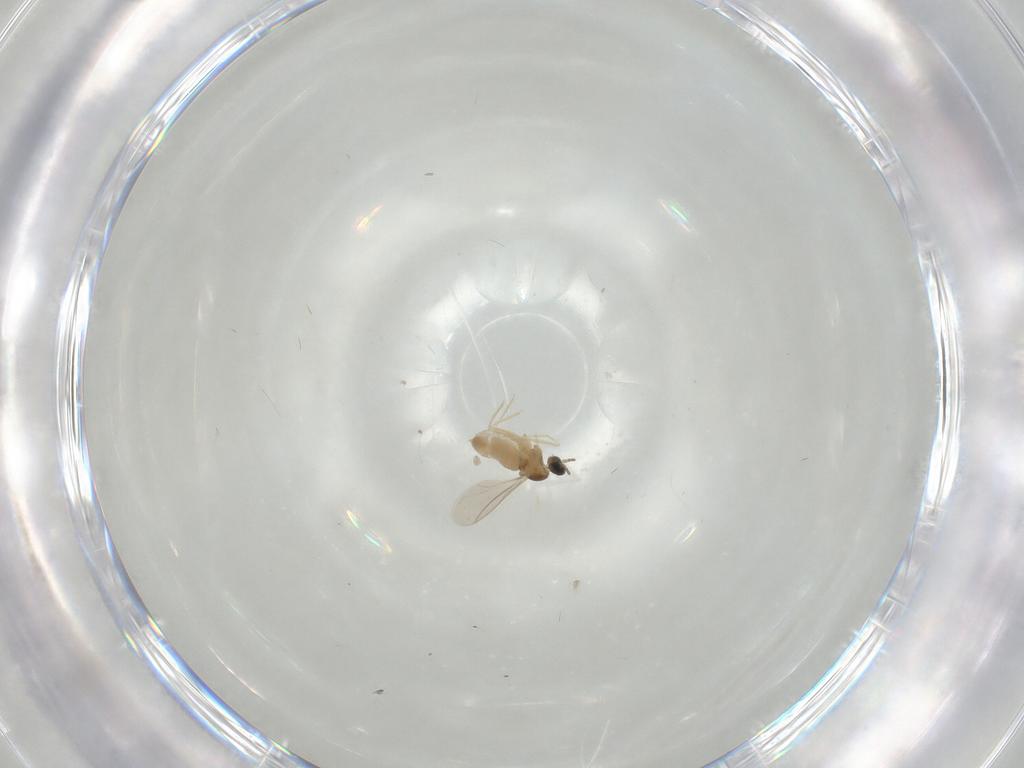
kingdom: Animalia
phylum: Arthropoda
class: Insecta
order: Diptera
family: Cecidomyiidae
